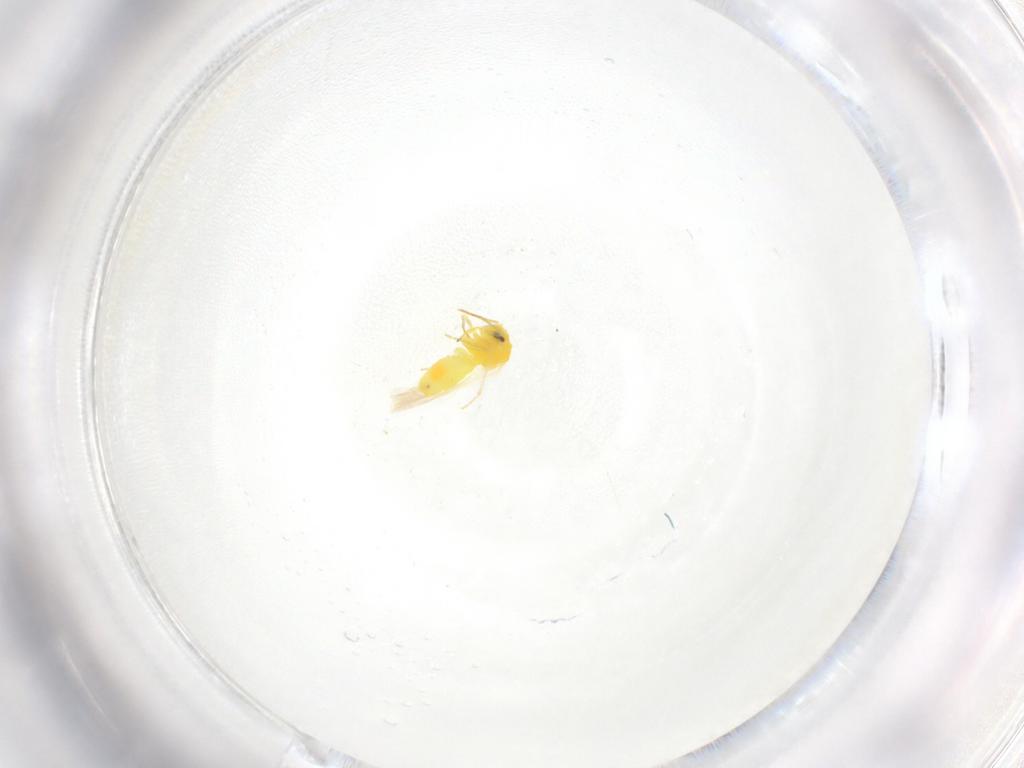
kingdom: Animalia
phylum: Arthropoda
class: Insecta
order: Hemiptera
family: Aleyrodidae
